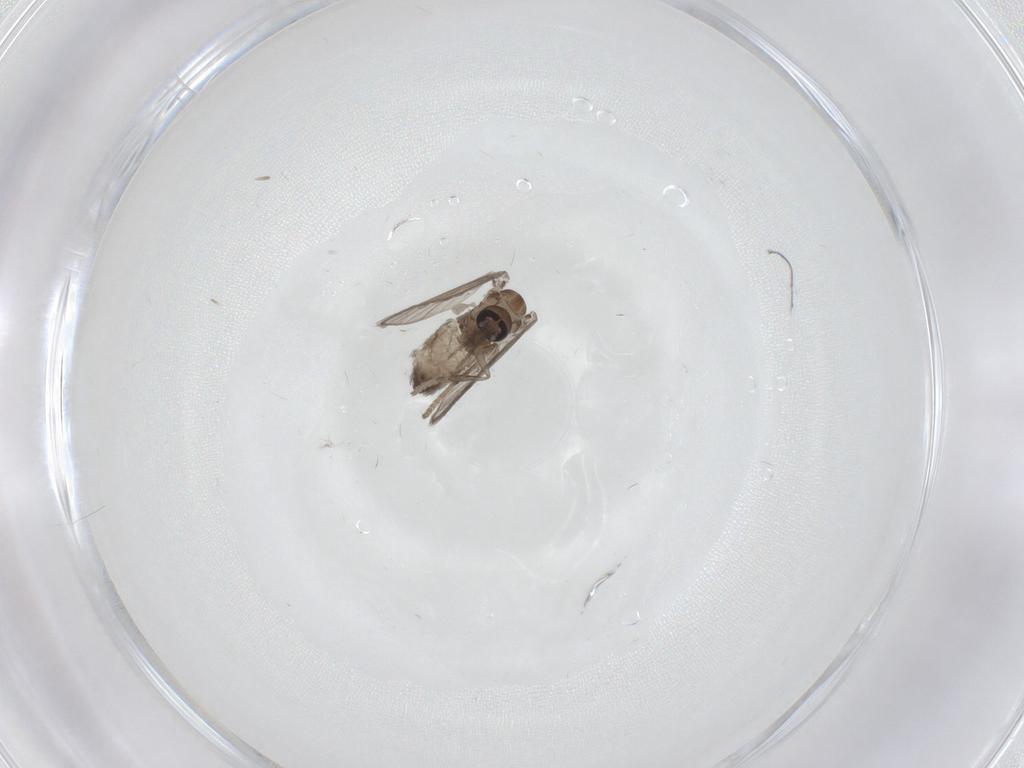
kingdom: Animalia
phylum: Arthropoda
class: Insecta
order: Diptera
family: Psychodidae
